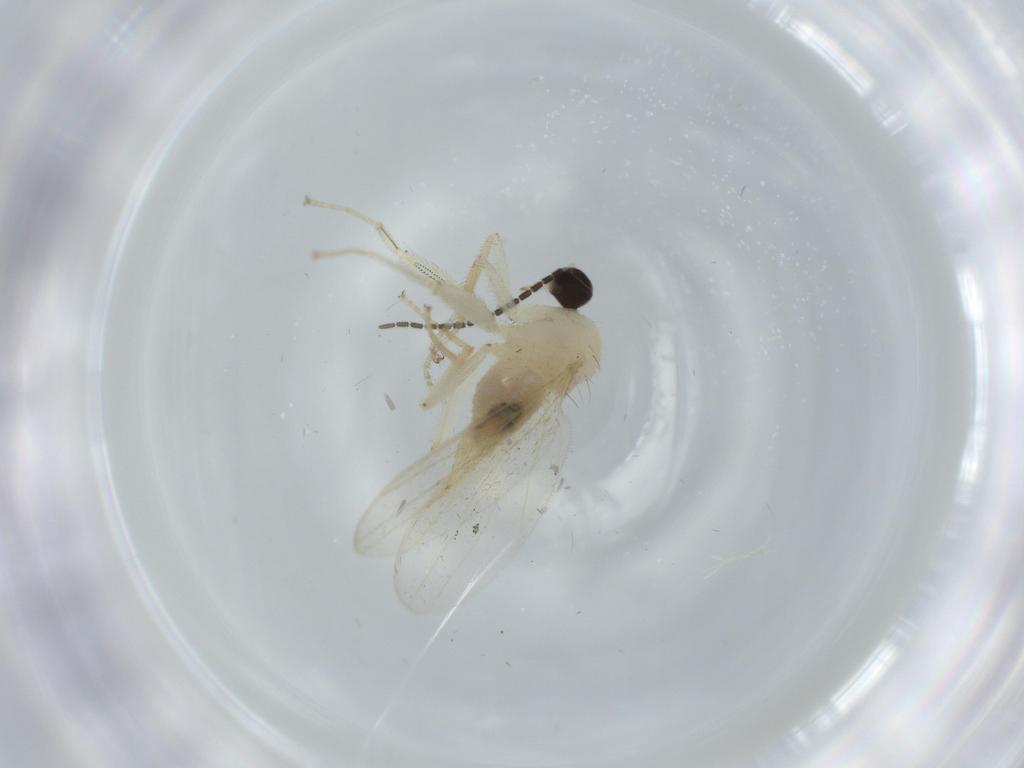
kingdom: Animalia
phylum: Arthropoda
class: Insecta
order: Diptera
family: Hybotidae
